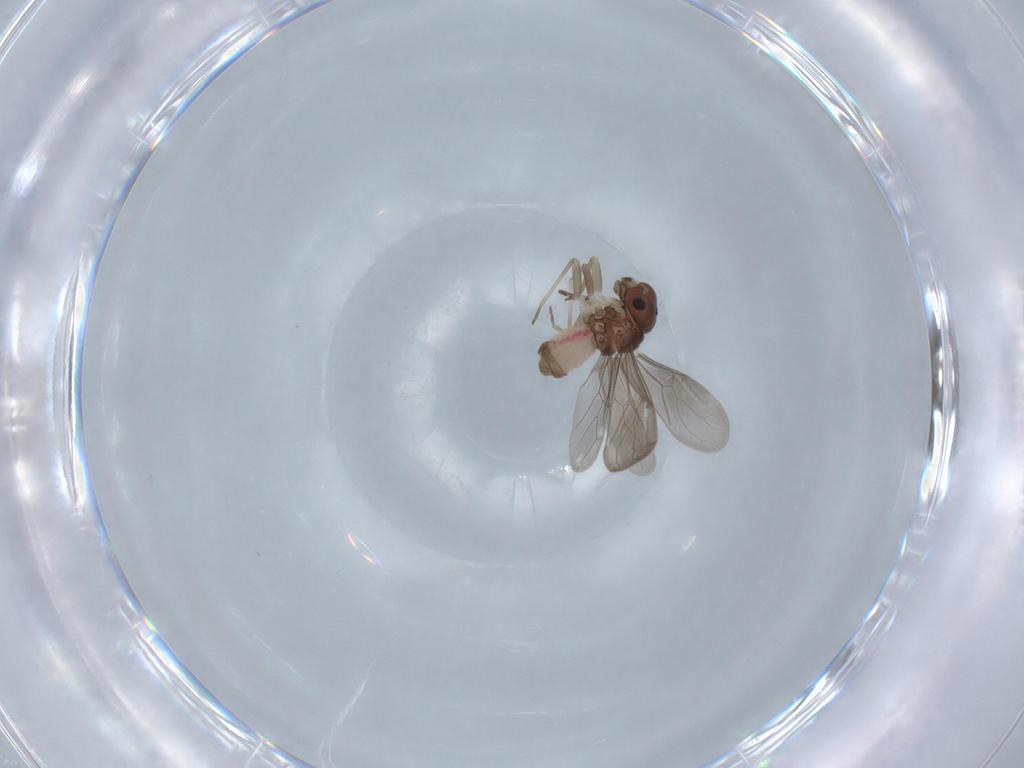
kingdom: Animalia
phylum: Arthropoda
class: Insecta
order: Psocodea
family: Asiopsocidae
